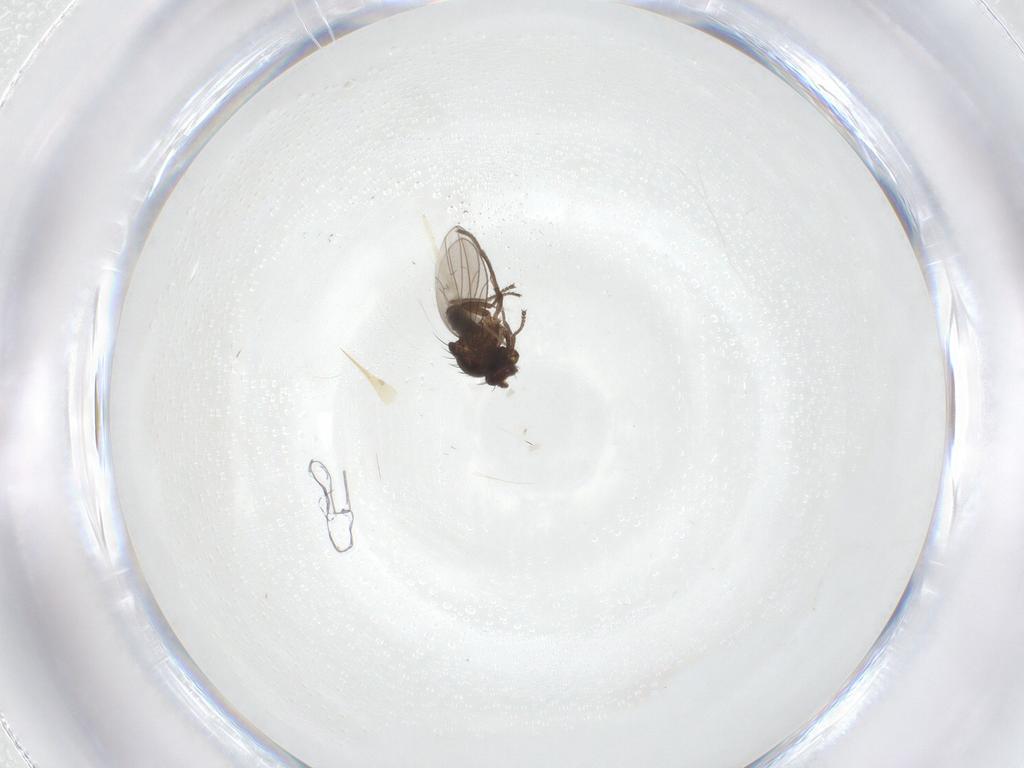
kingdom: Animalia
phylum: Arthropoda
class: Insecta
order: Diptera
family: Ephydridae
